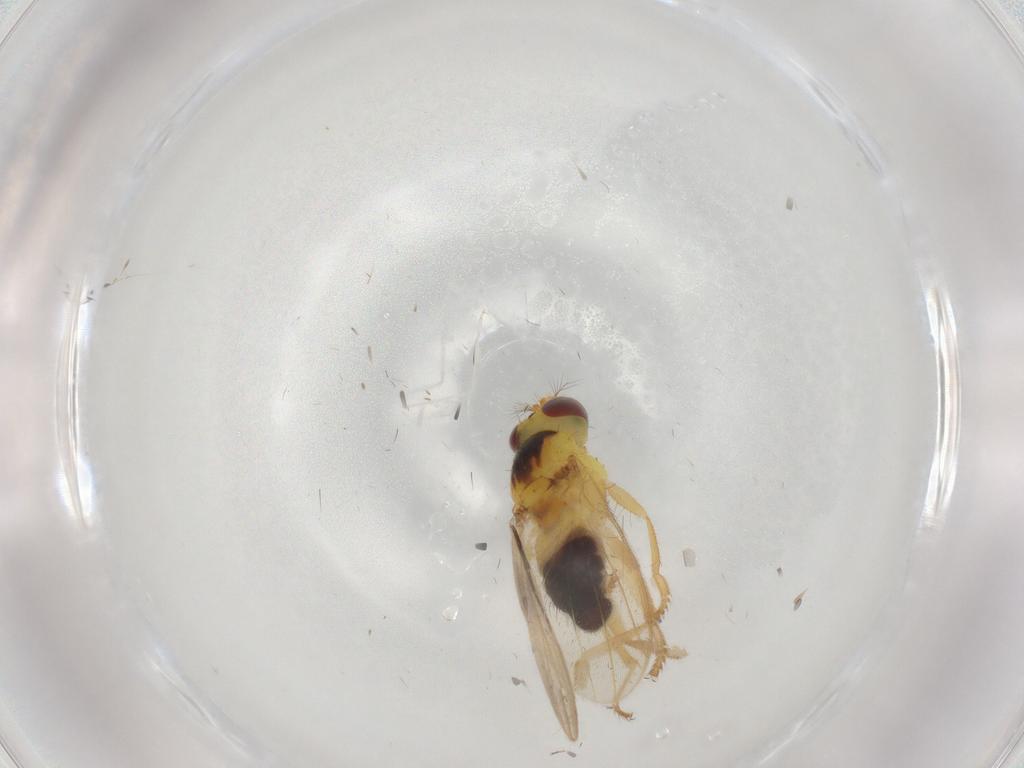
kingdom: Animalia
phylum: Arthropoda
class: Insecta
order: Diptera
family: Periscelididae
